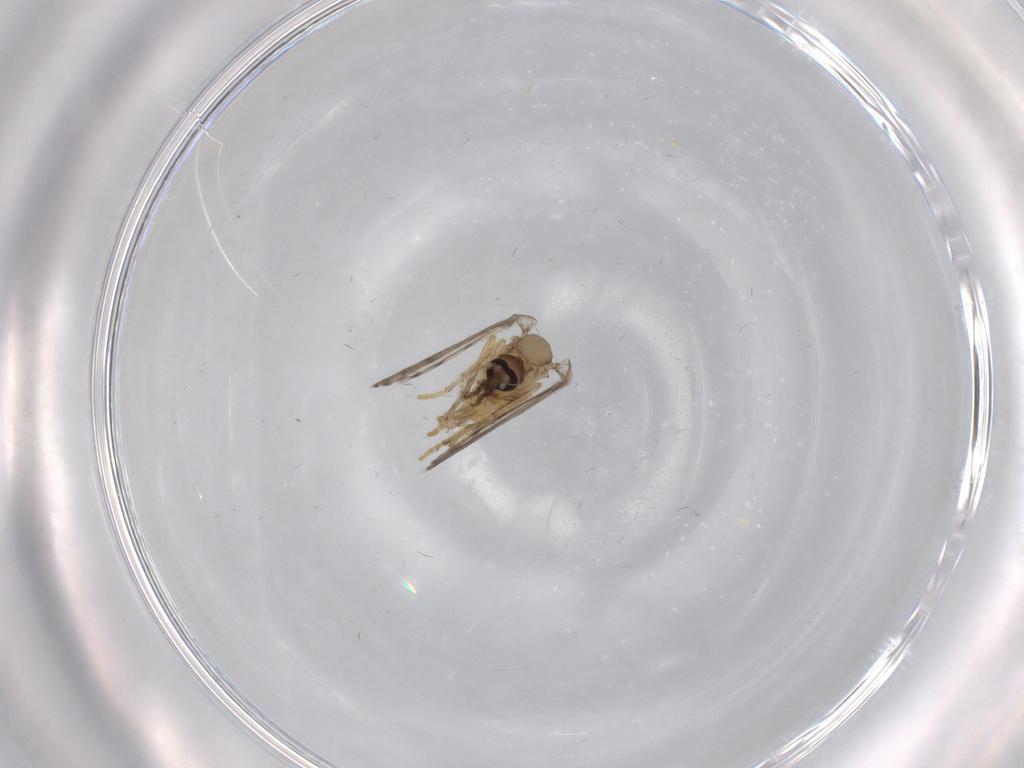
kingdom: Animalia
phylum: Arthropoda
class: Insecta
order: Diptera
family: Psychodidae
